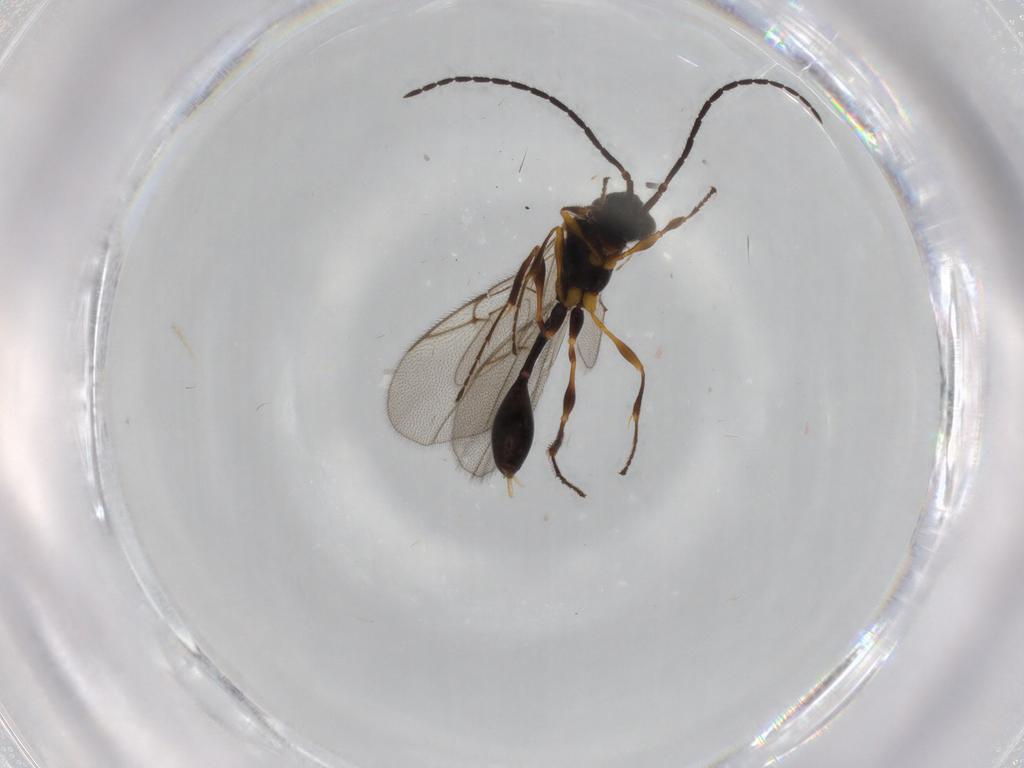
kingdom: Animalia
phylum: Arthropoda
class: Insecta
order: Hymenoptera
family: Diapriidae
